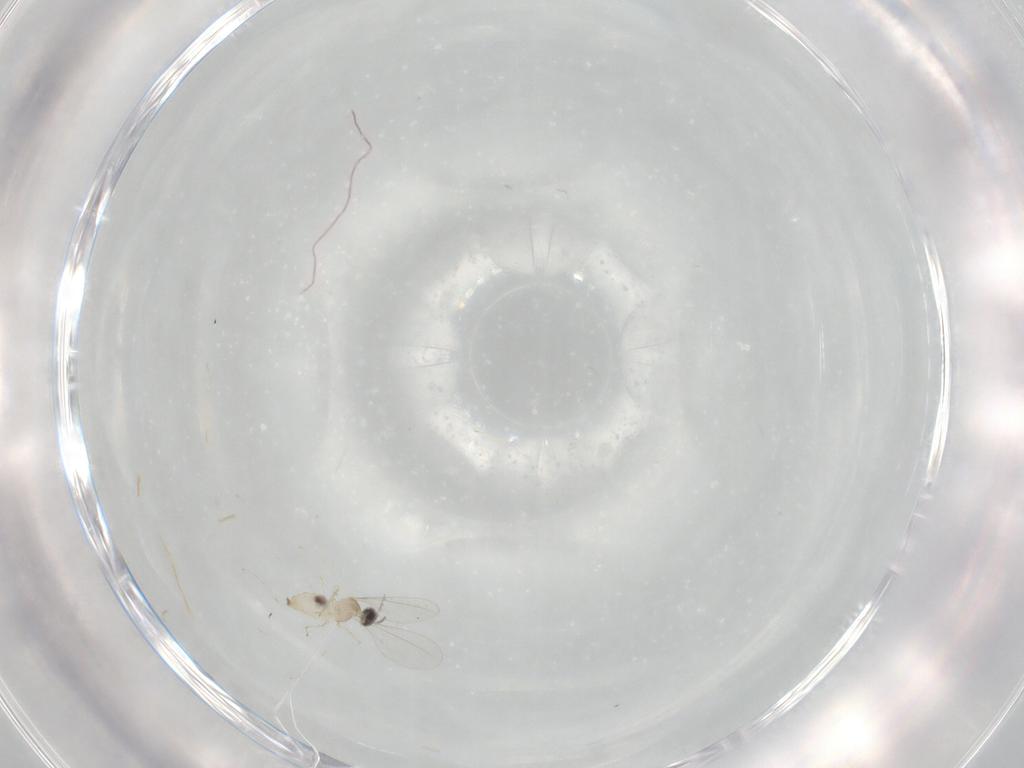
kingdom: Animalia
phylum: Arthropoda
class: Insecta
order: Diptera
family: Cecidomyiidae
